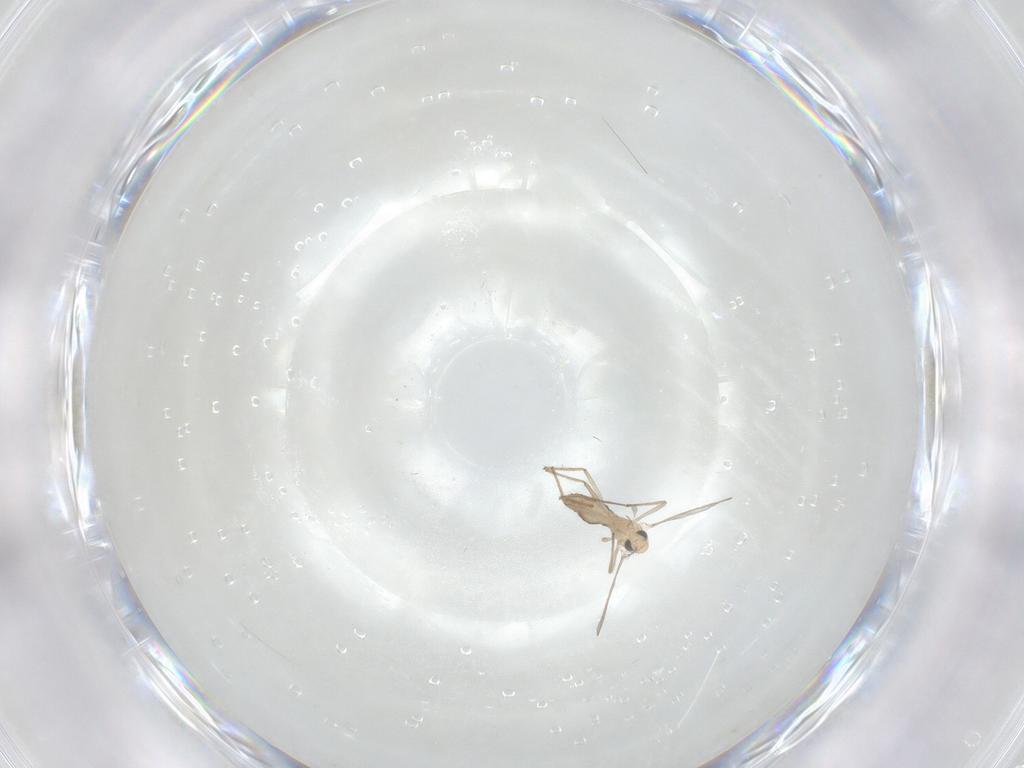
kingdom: Animalia
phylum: Arthropoda
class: Insecta
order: Diptera
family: Chironomidae
